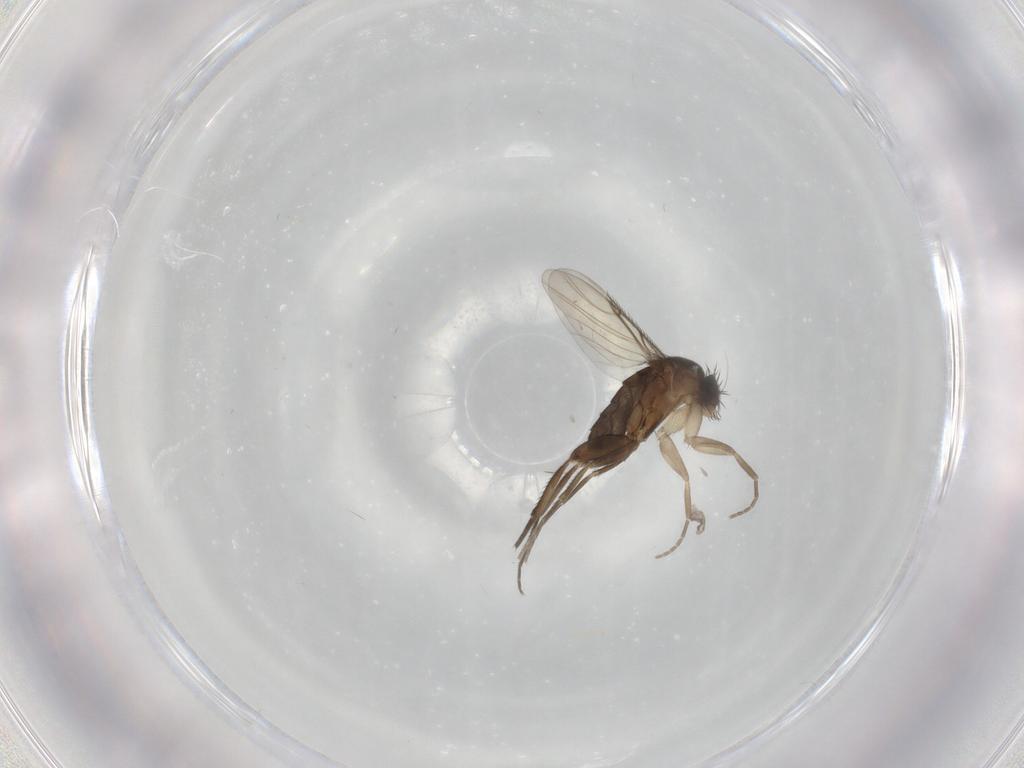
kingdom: Animalia
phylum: Arthropoda
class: Insecta
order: Diptera
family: Phoridae
